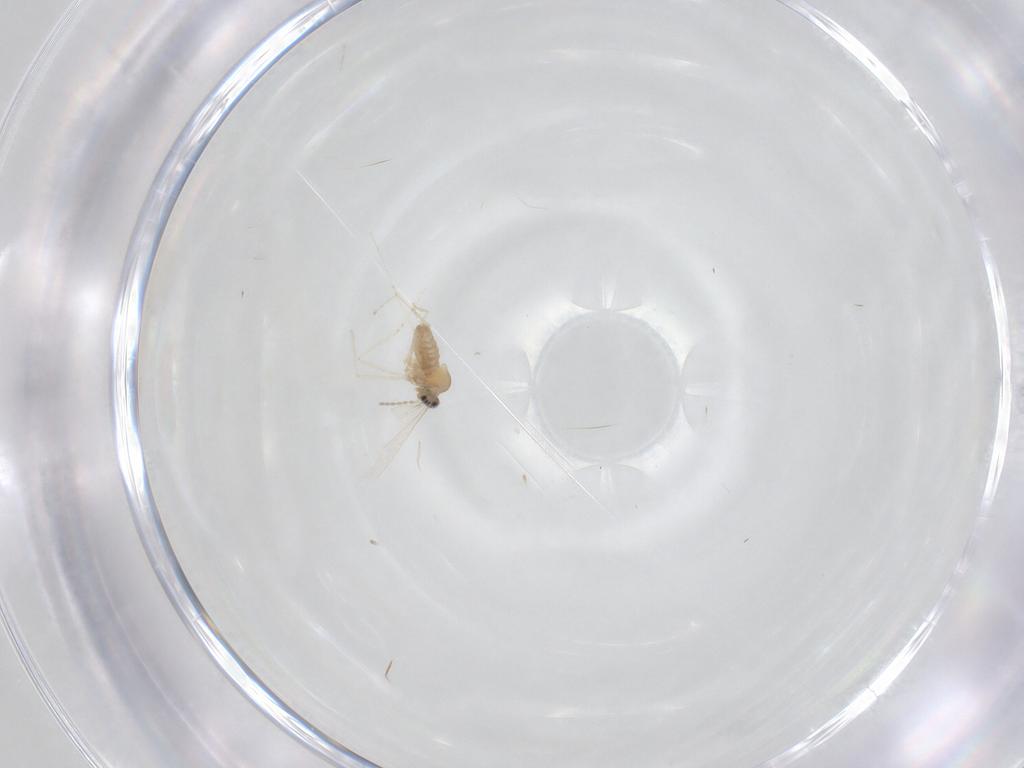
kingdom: Animalia
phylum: Arthropoda
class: Insecta
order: Diptera
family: Cecidomyiidae
